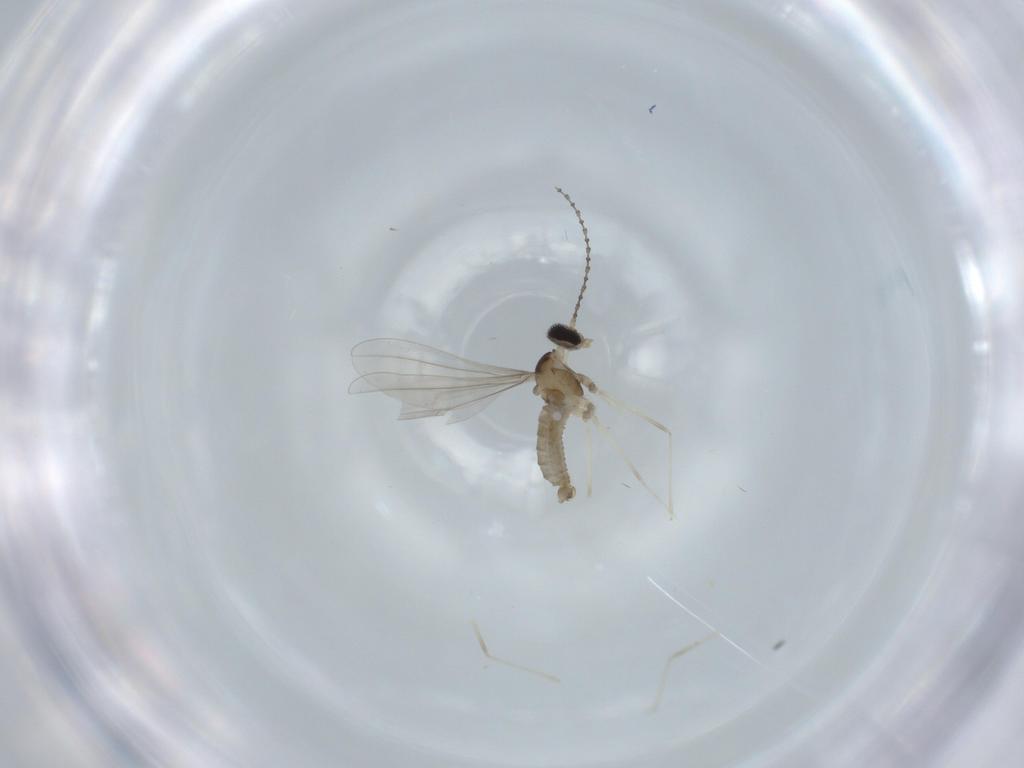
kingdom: Animalia
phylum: Arthropoda
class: Insecta
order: Diptera
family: Cecidomyiidae
